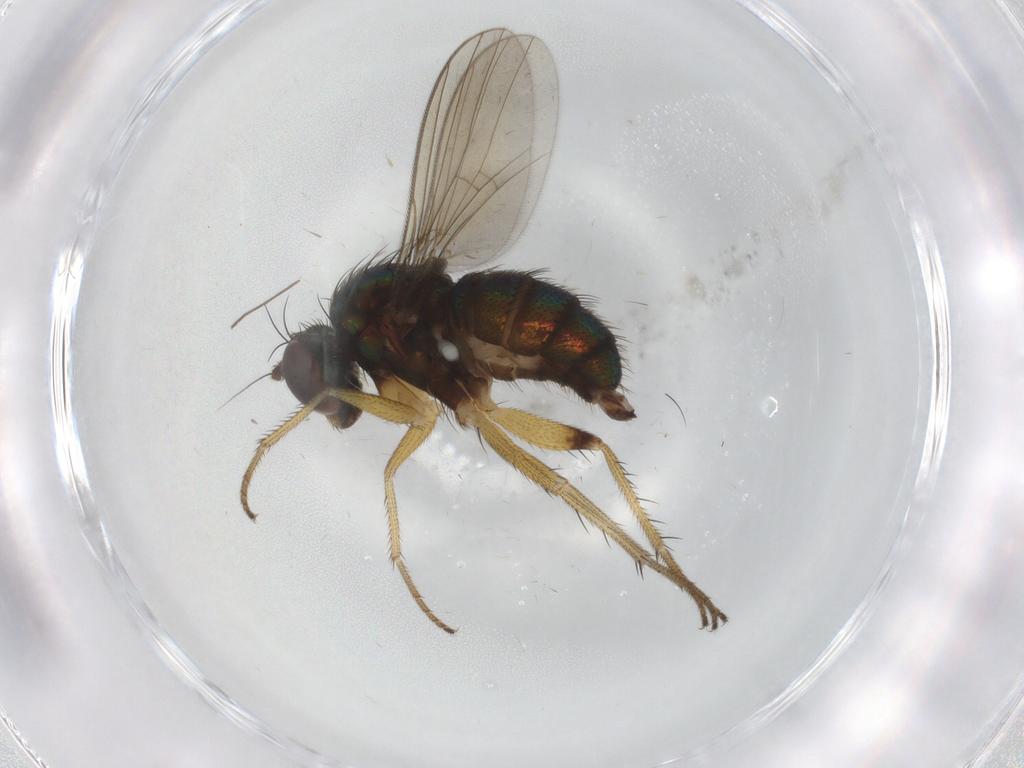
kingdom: Animalia
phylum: Arthropoda
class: Insecta
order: Diptera
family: Dolichopodidae
